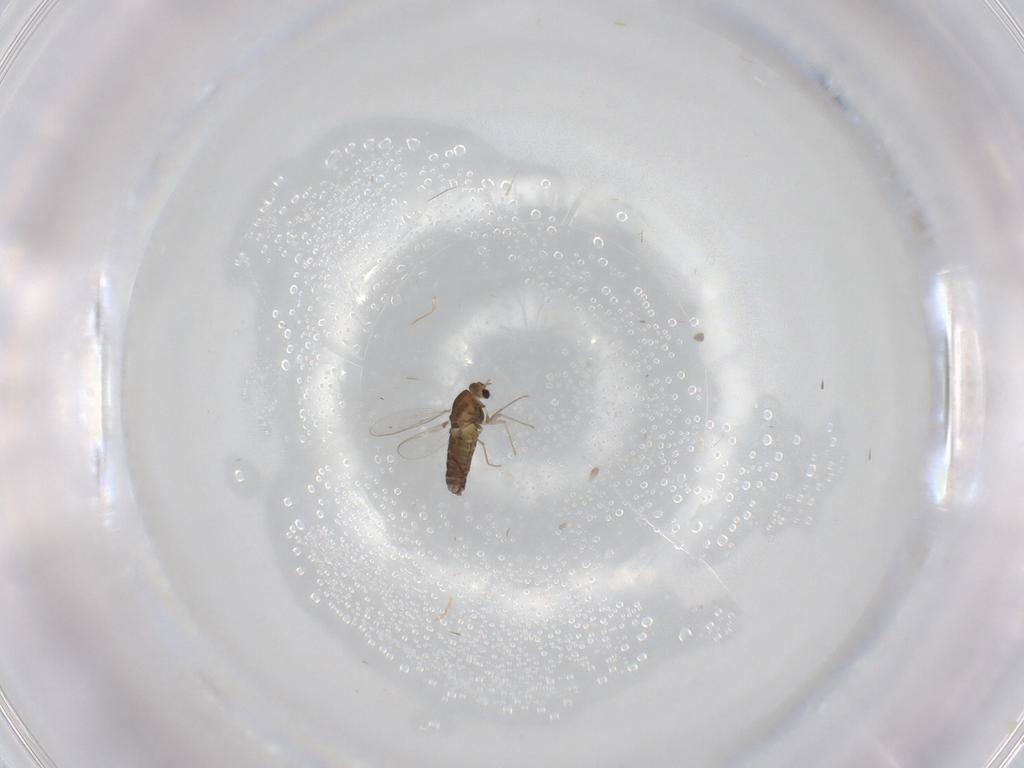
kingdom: Animalia
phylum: Arthropoda
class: Insecta
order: Diptera
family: Chironomidae
